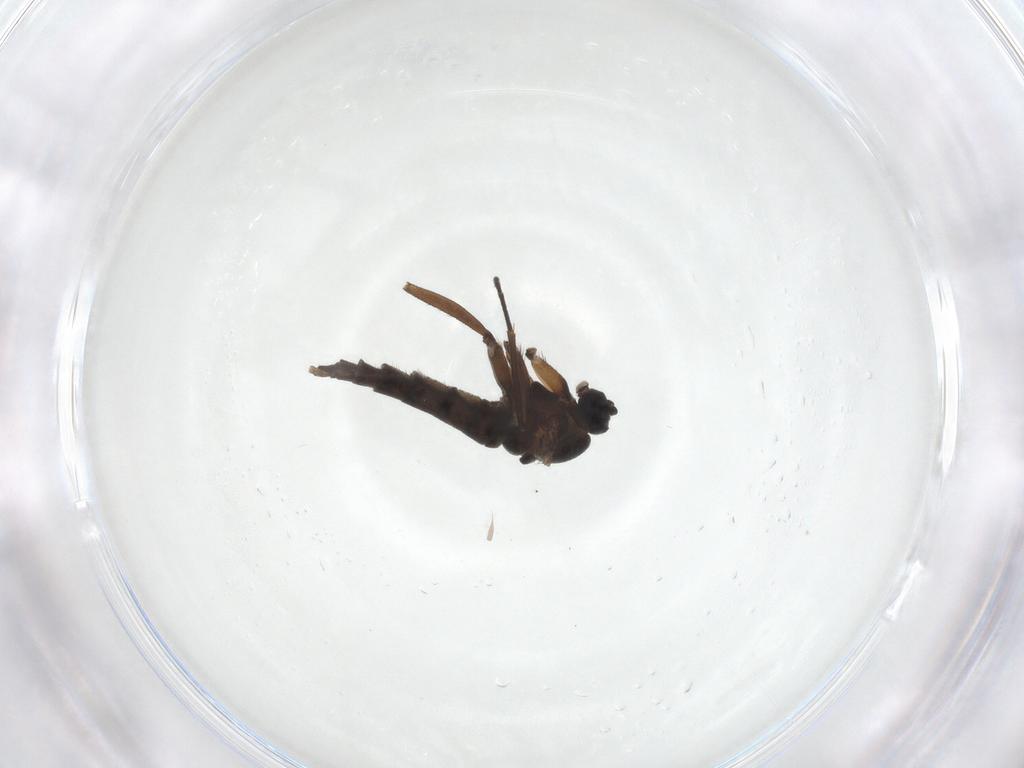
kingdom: Animalia
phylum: Arthropoda
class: Insecta
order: Diptera
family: Sciaridae
